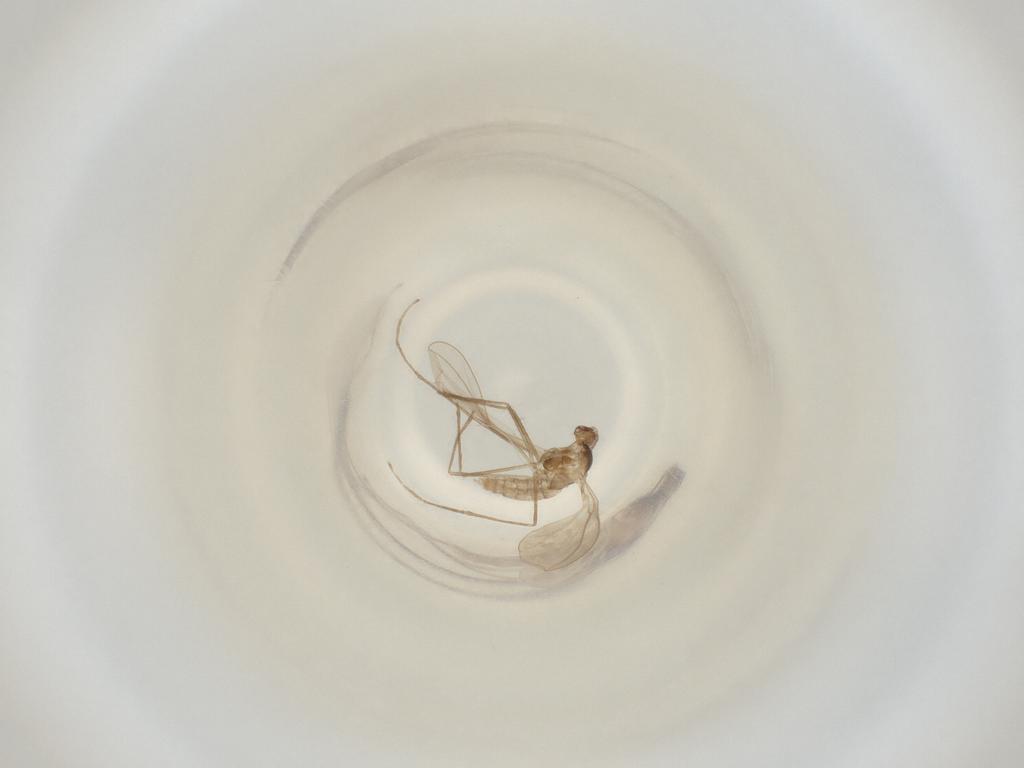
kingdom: Animalia
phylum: Arthropoda
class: Insecta
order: Diptera
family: Cecidomyiidae
